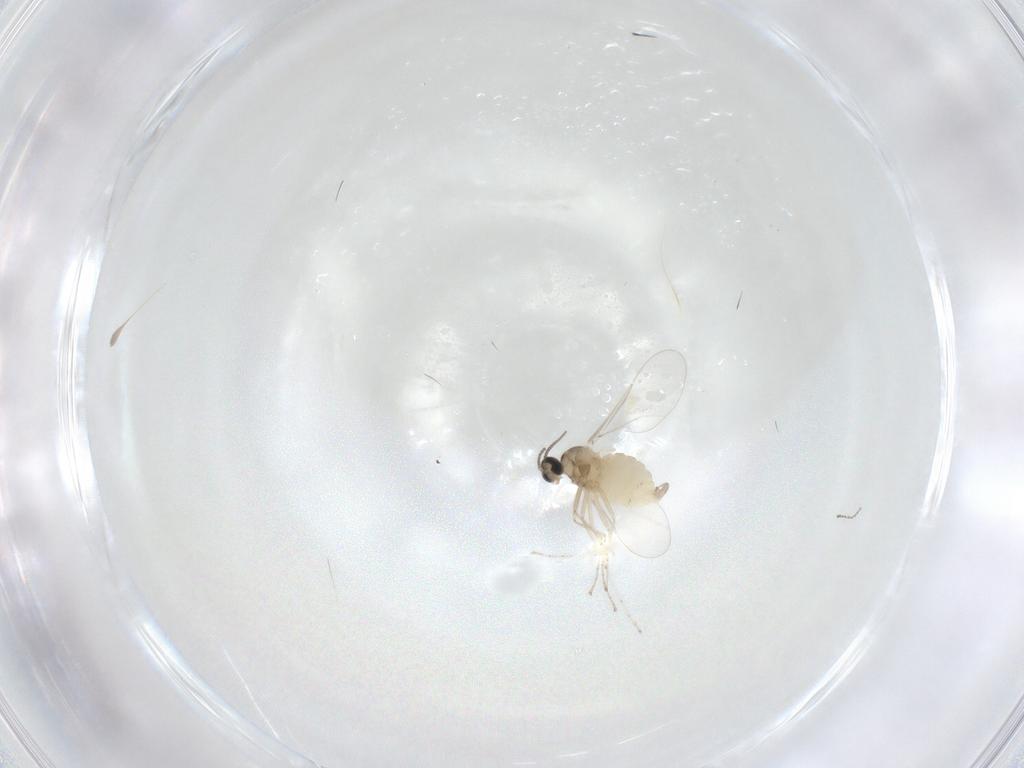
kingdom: Animalia
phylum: Arthropoda
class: Insecta
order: Diptera
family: Cecidomyiidae
